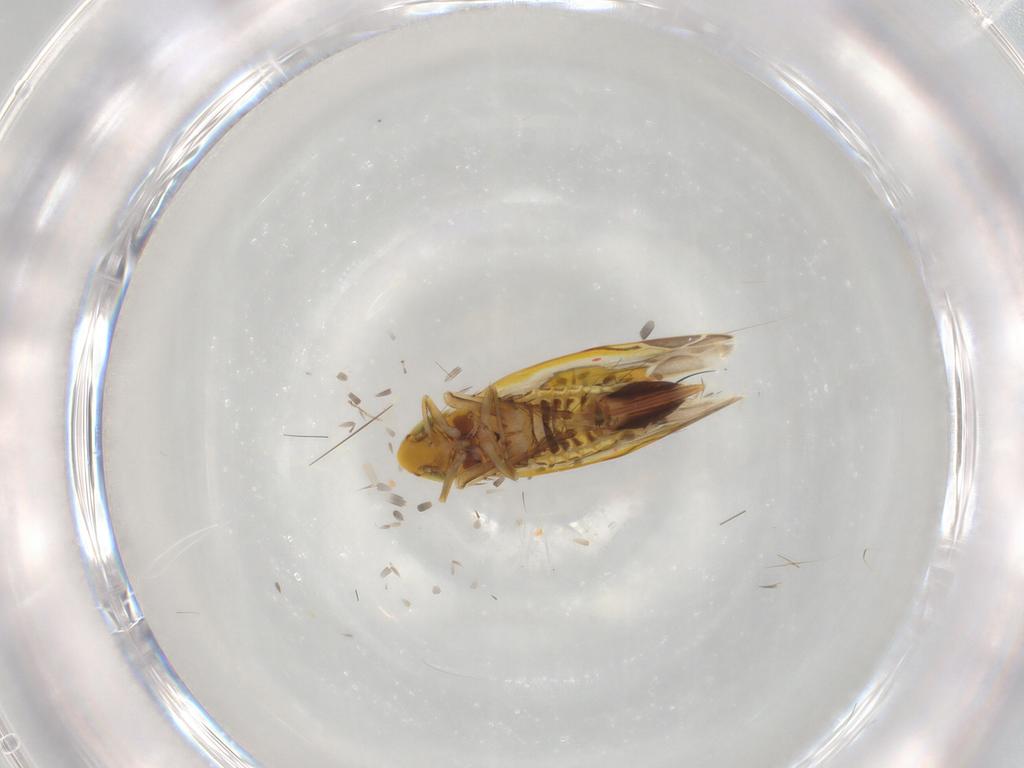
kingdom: Animalia
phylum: Arthropoda
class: Insecta
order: Hemiptera
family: Cicadellidae
